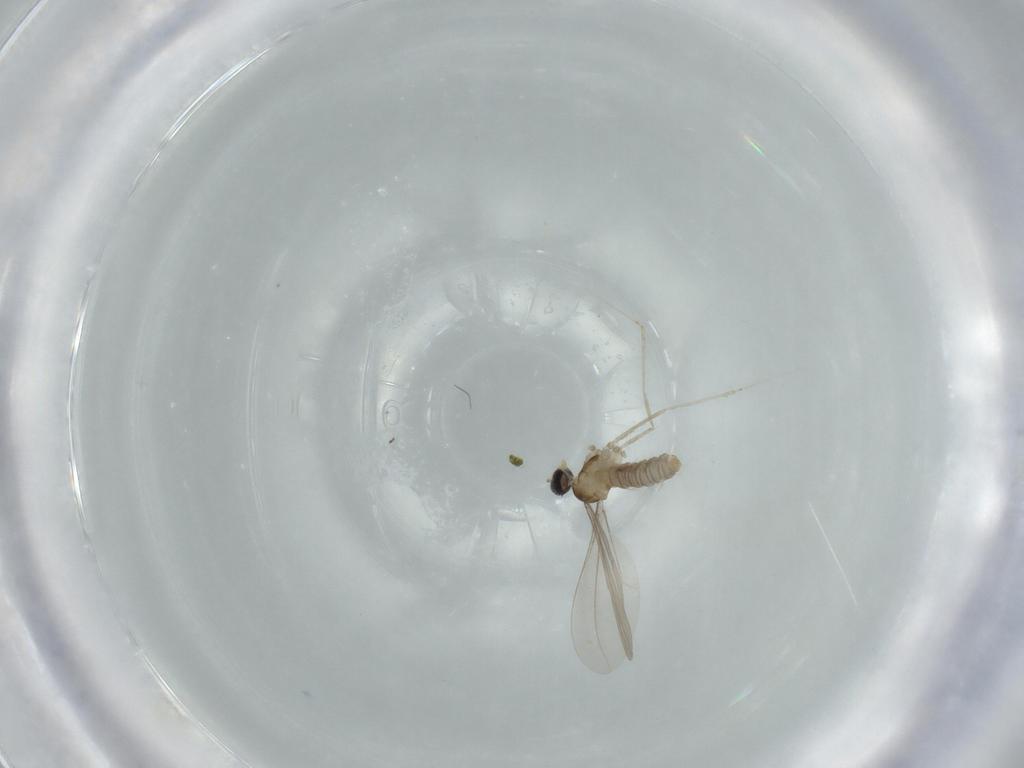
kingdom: Animalia
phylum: Arthropoda
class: Insecta
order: Diptera
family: Cecidomyiidae
